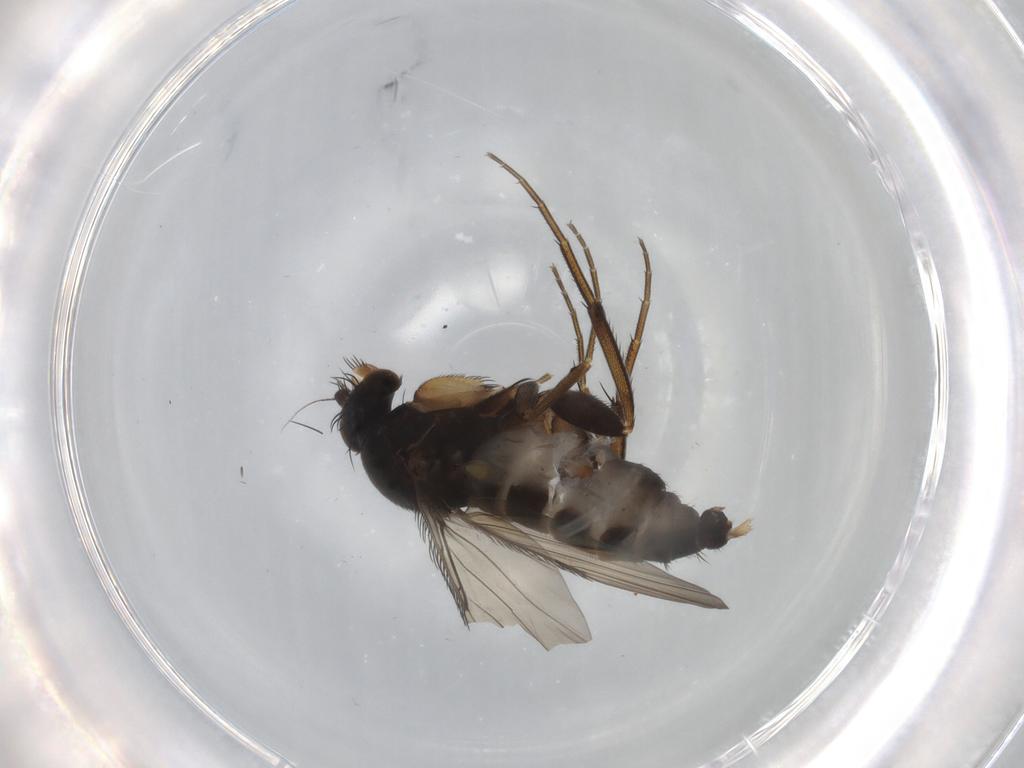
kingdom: Animalia
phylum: Arthropoda
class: Insecta
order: Diptera
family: Phoridae
